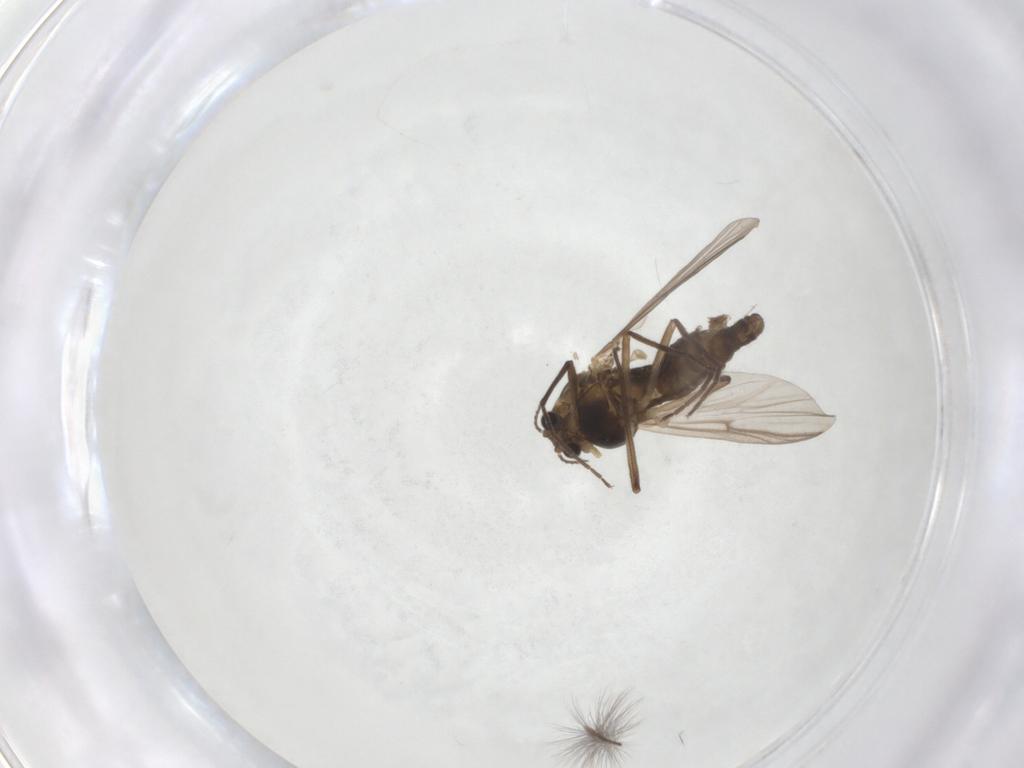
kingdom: Animalia
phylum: Arthropoda
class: Insecta
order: Diptera
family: Chironomidae
